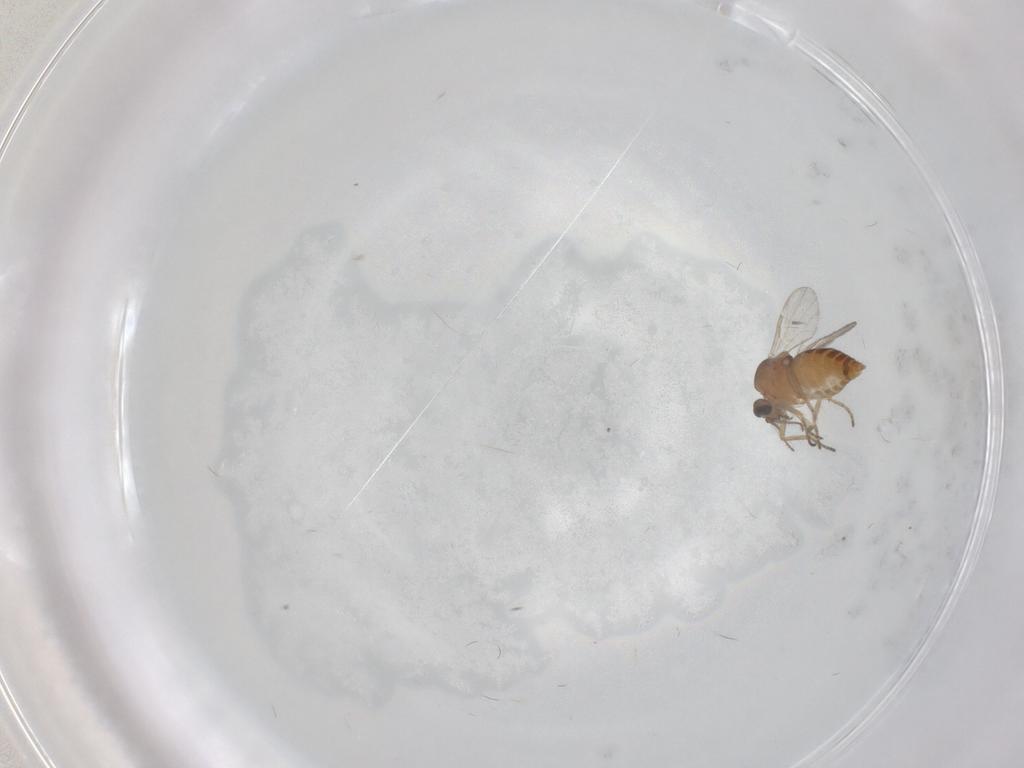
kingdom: Animalia
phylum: Arthropoda
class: Insecta
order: Diptera
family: Ceratopogonidae
